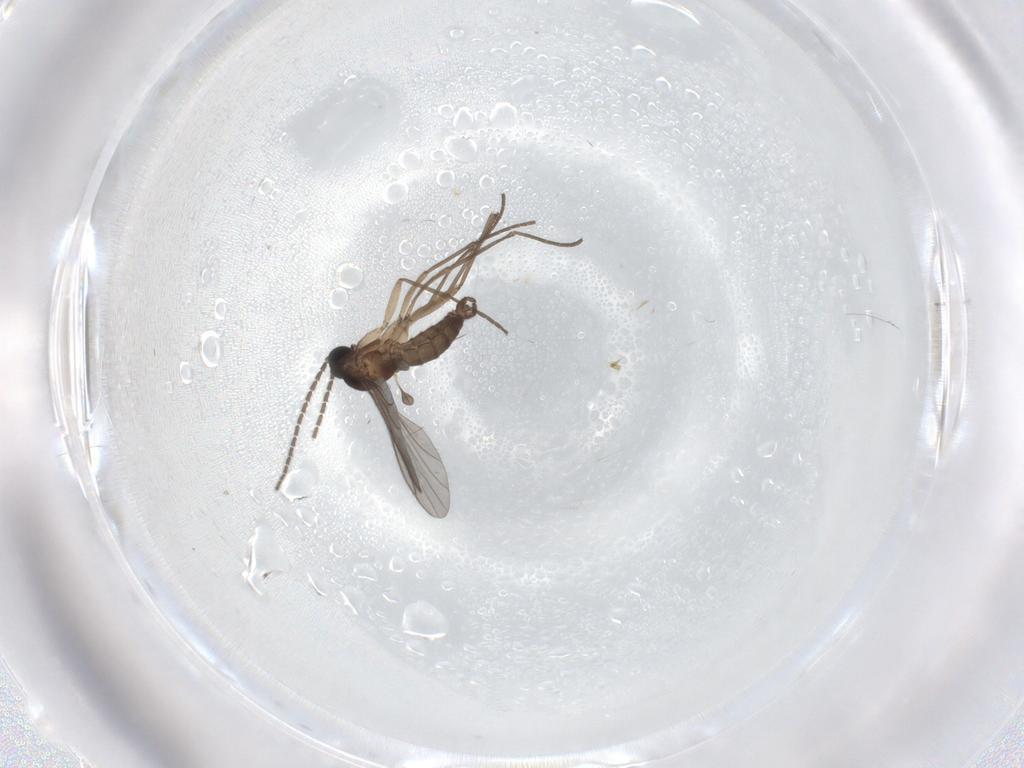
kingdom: Animalia
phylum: Arthropoda
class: Insecta
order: Diptera
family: Sciaridae
